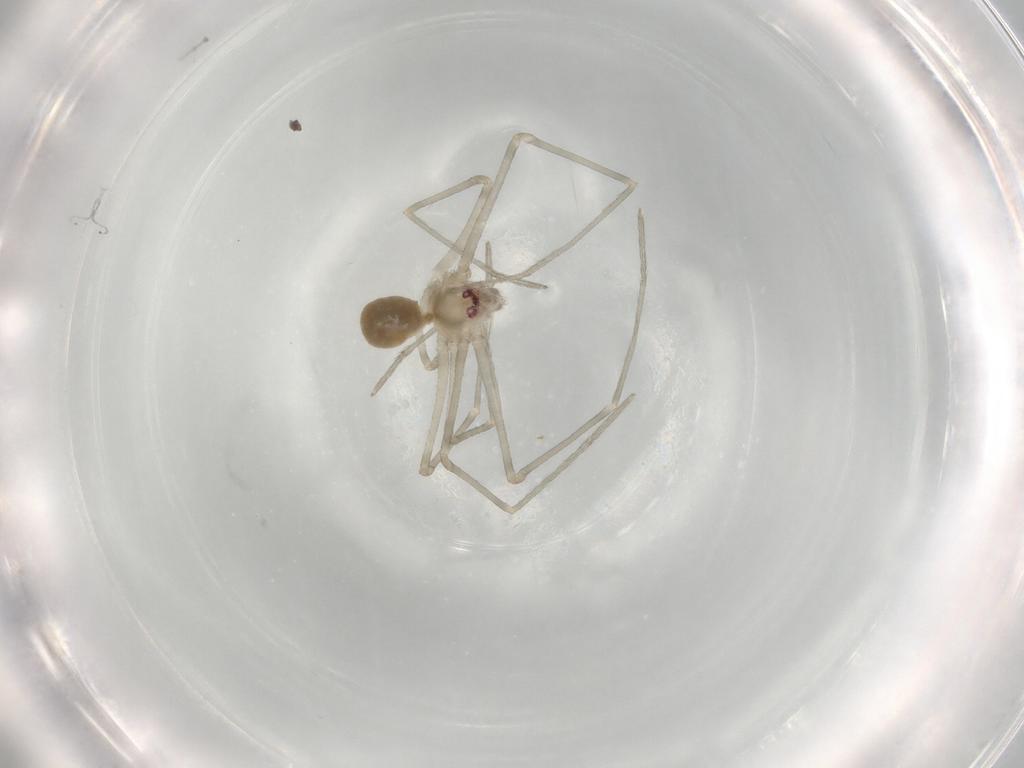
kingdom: Animalia
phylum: Arthropoda
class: Arachnida
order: Araneae
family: Pholcidae
